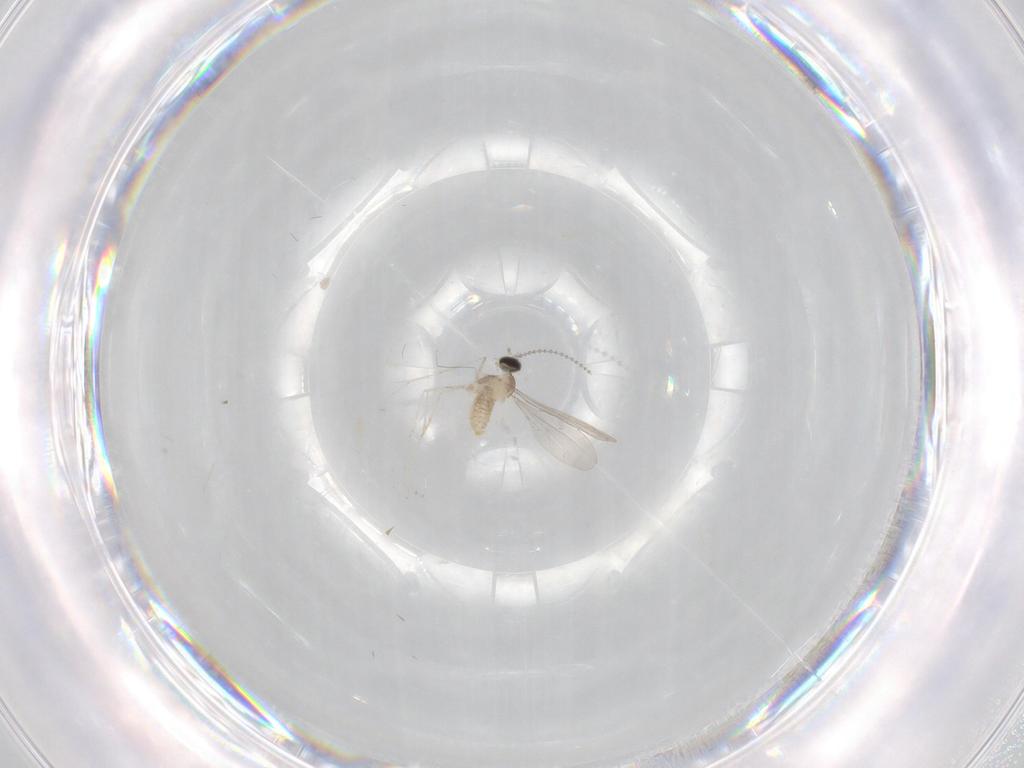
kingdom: Animalia
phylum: Arthropoda
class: Insecta
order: Diptera
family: Cecidomyiidae
